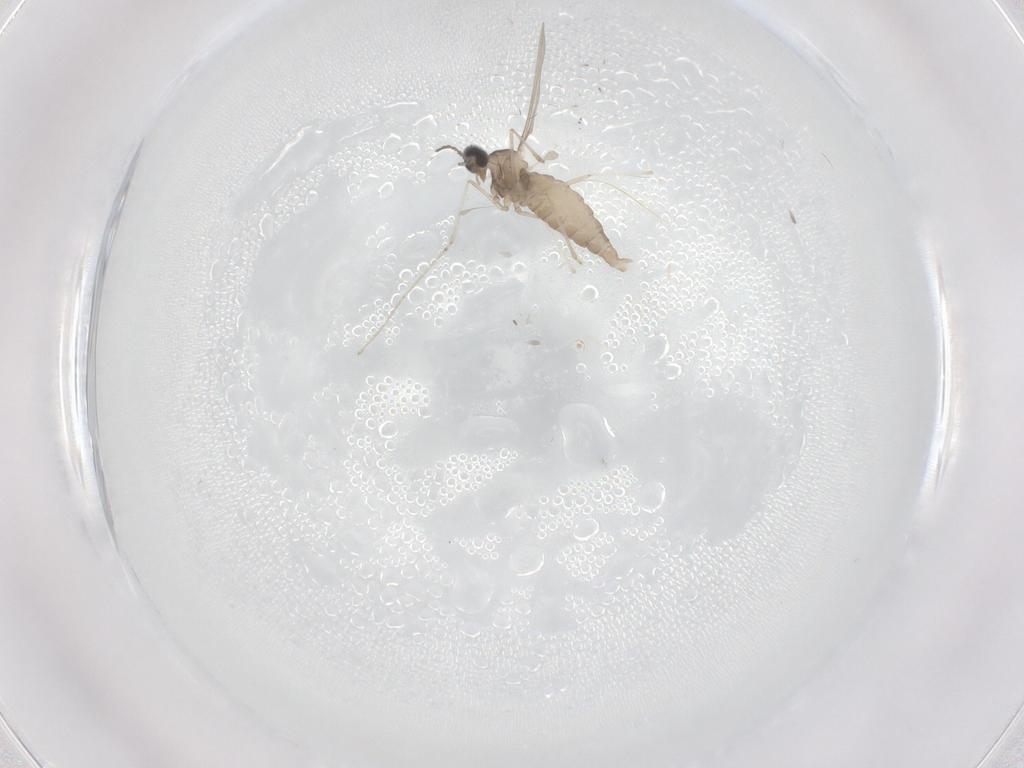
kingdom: Animalia
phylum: Arthropoda
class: Insecta
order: Diptera
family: Cecidomyiidae
